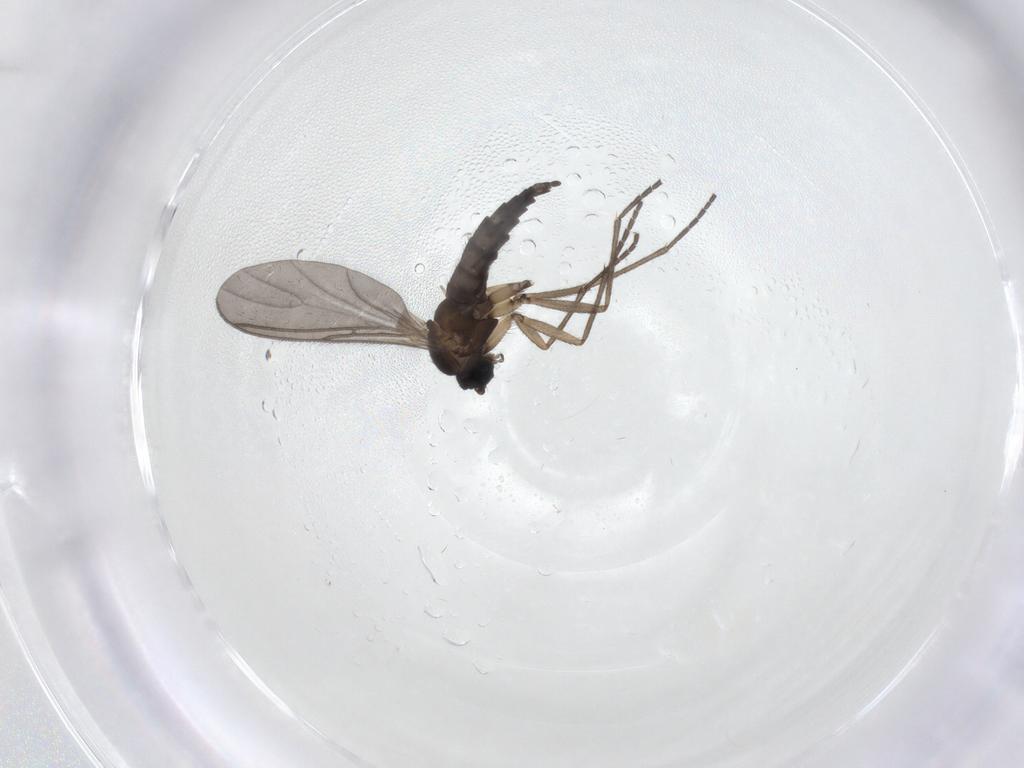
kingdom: Animalia
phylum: Arthropoda
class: Insecta
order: Diptera
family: Sciaridae
